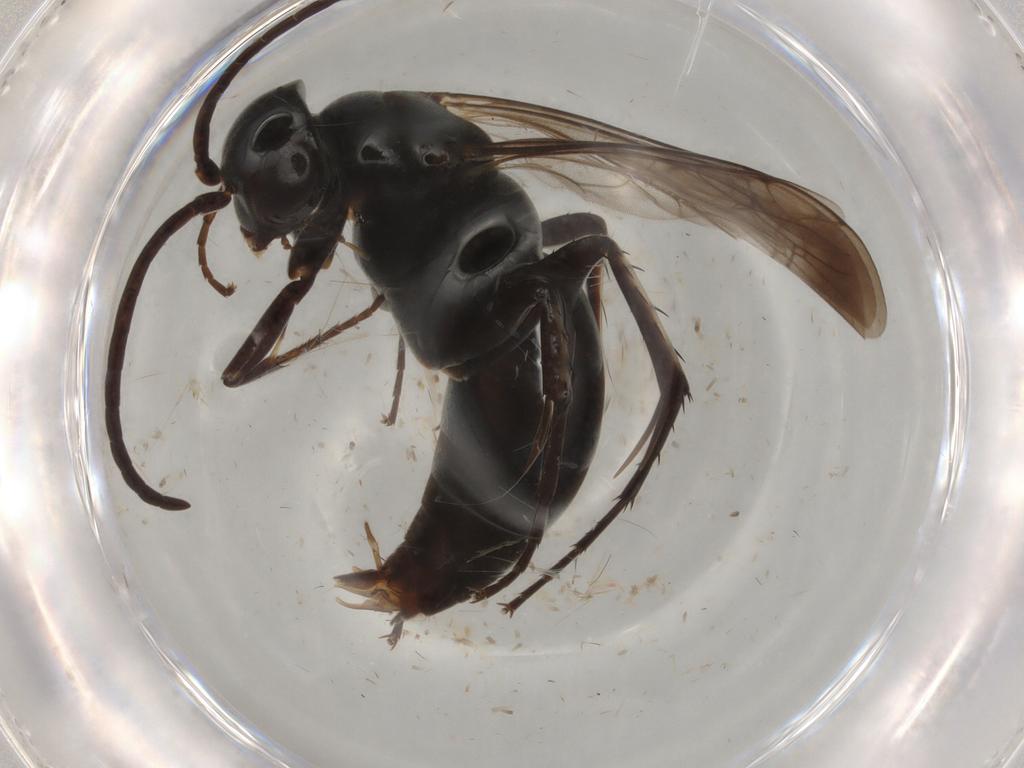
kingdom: Animalia
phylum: Arthropoda
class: Insecta
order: Hymenoptera
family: Pompilidae
